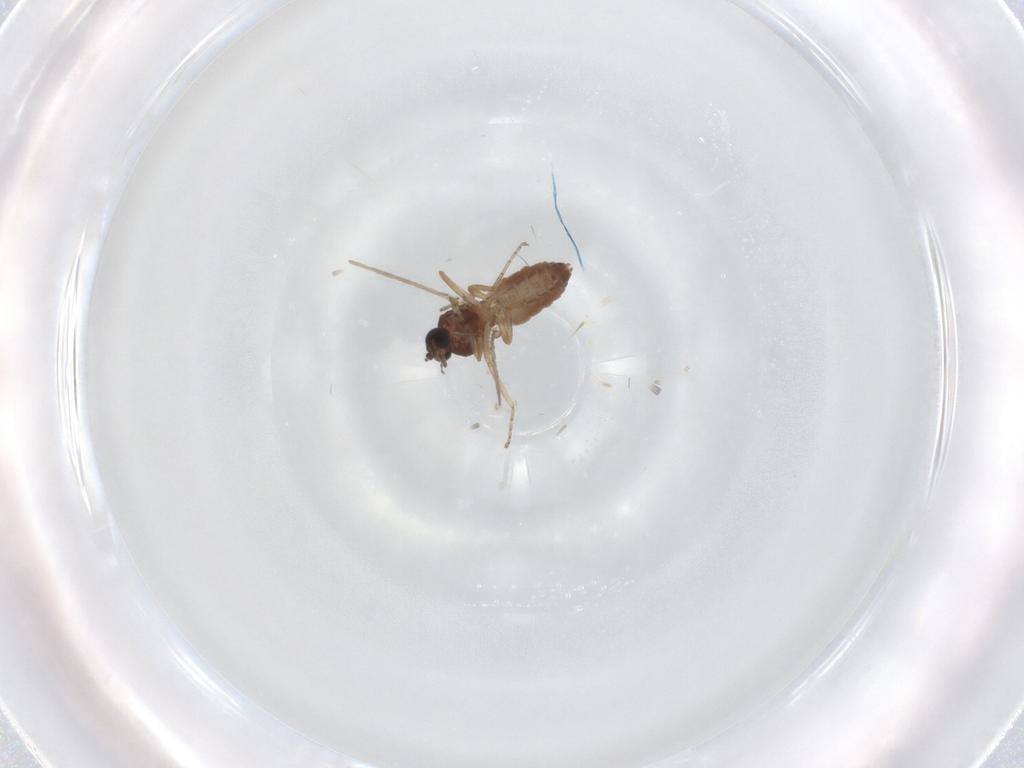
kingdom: Animalia
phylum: Arthropoda
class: Insecta
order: Diptera
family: Ceratopogonidae
